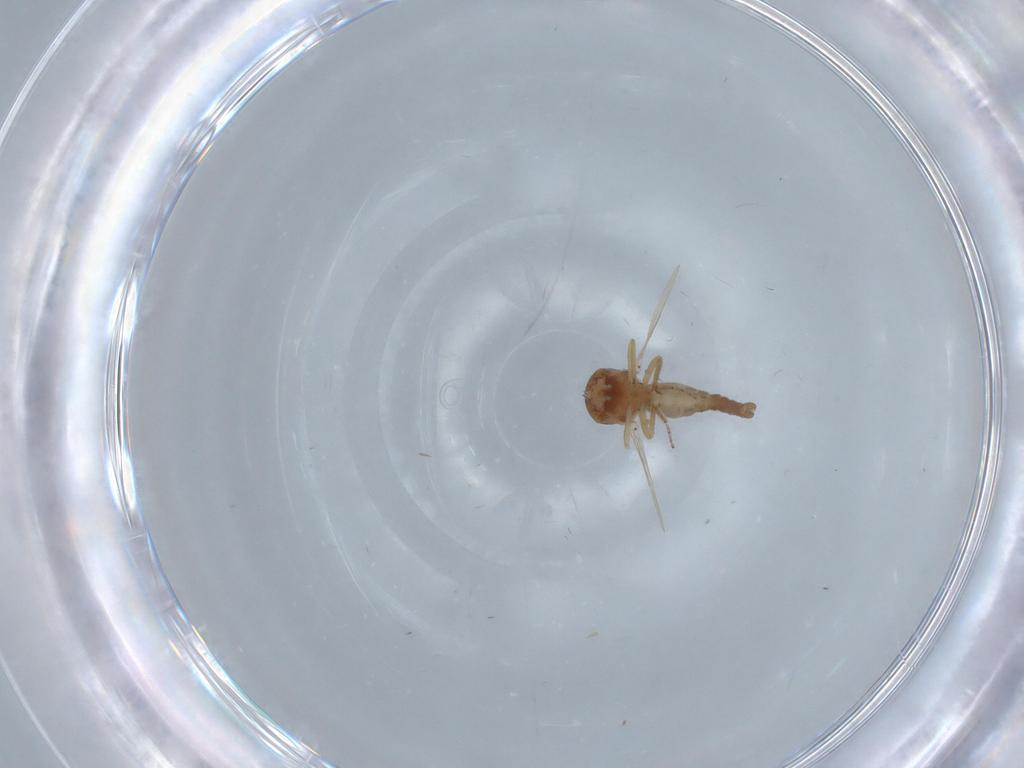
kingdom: Animalia
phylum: Arthropoda
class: Insecta
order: Diptera
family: Ceratopogonidae
